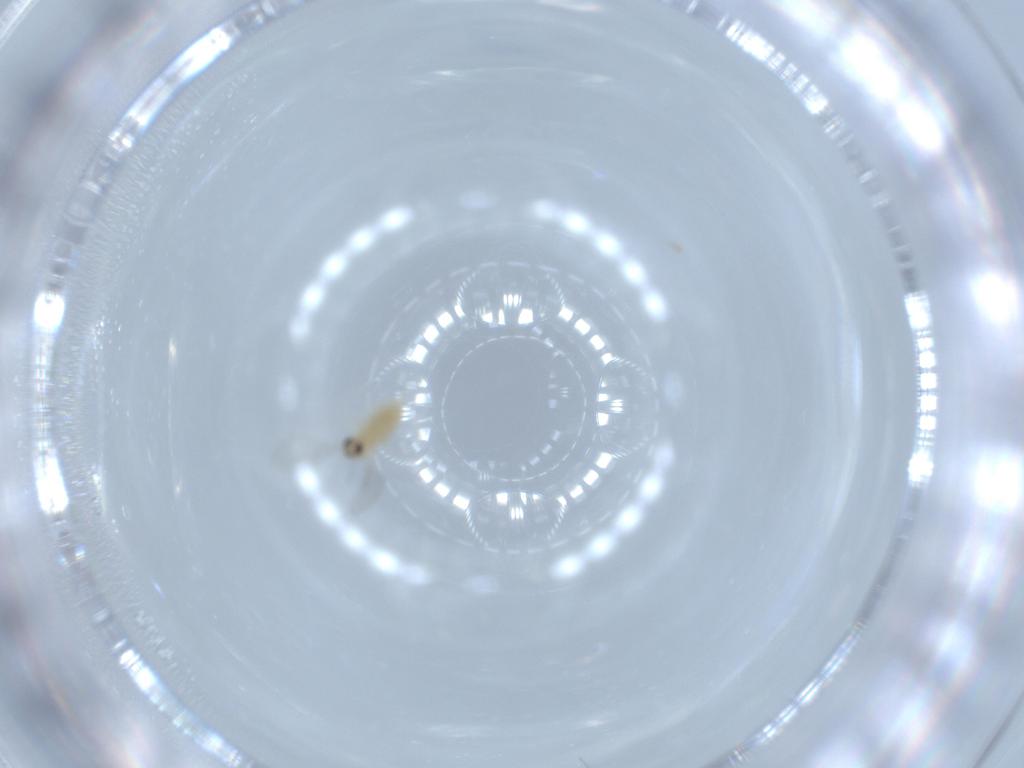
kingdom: Animalia
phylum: Arthropoda
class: Insecta
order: Diptera
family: Cecidomyiidae
